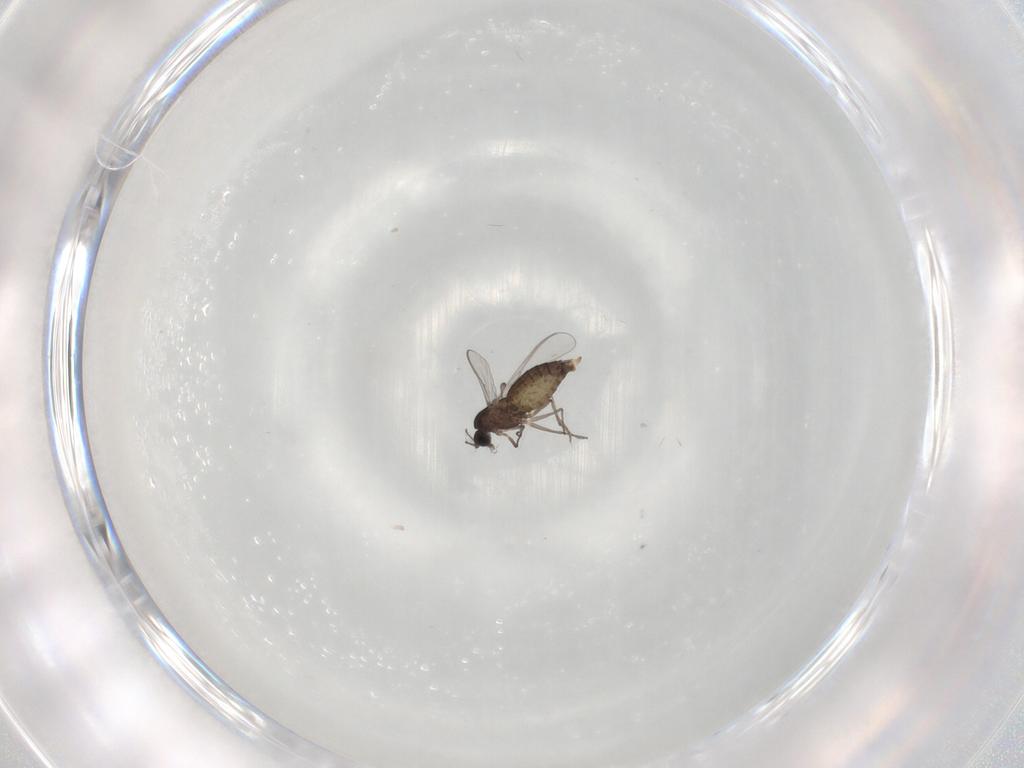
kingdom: Animalia
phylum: Arthropoda
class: Insecta
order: Diptera
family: Chironomidae
